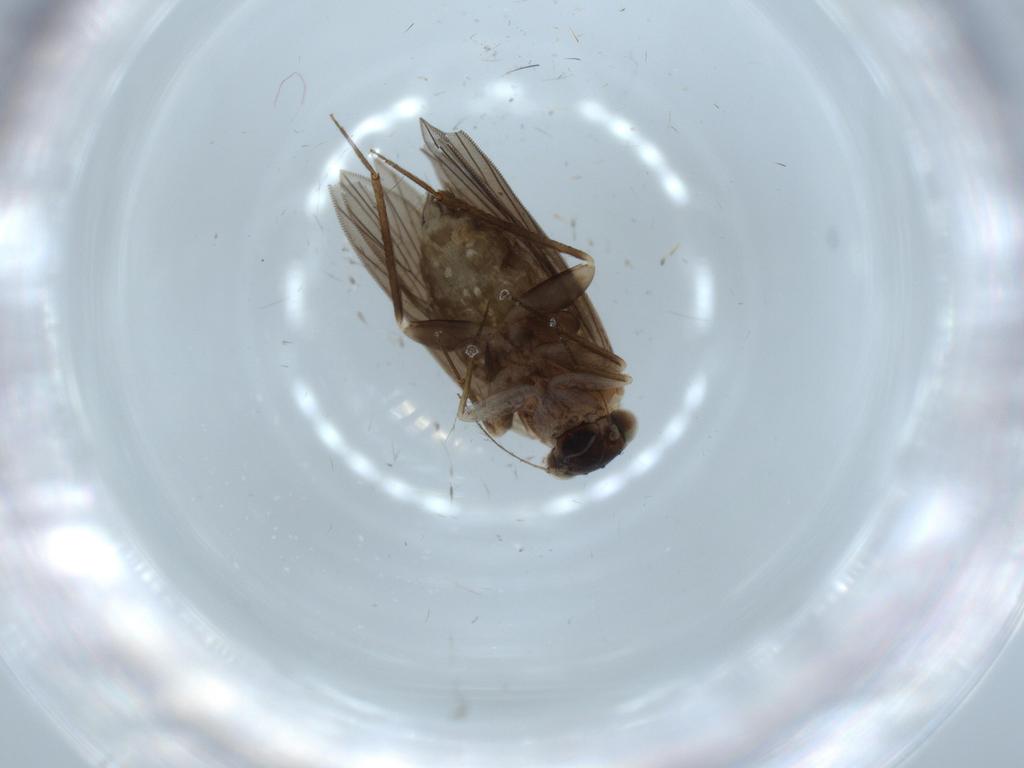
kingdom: Animalia
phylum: Arthropoda
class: Insecta
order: Psocodea
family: Lepidopsocidae
